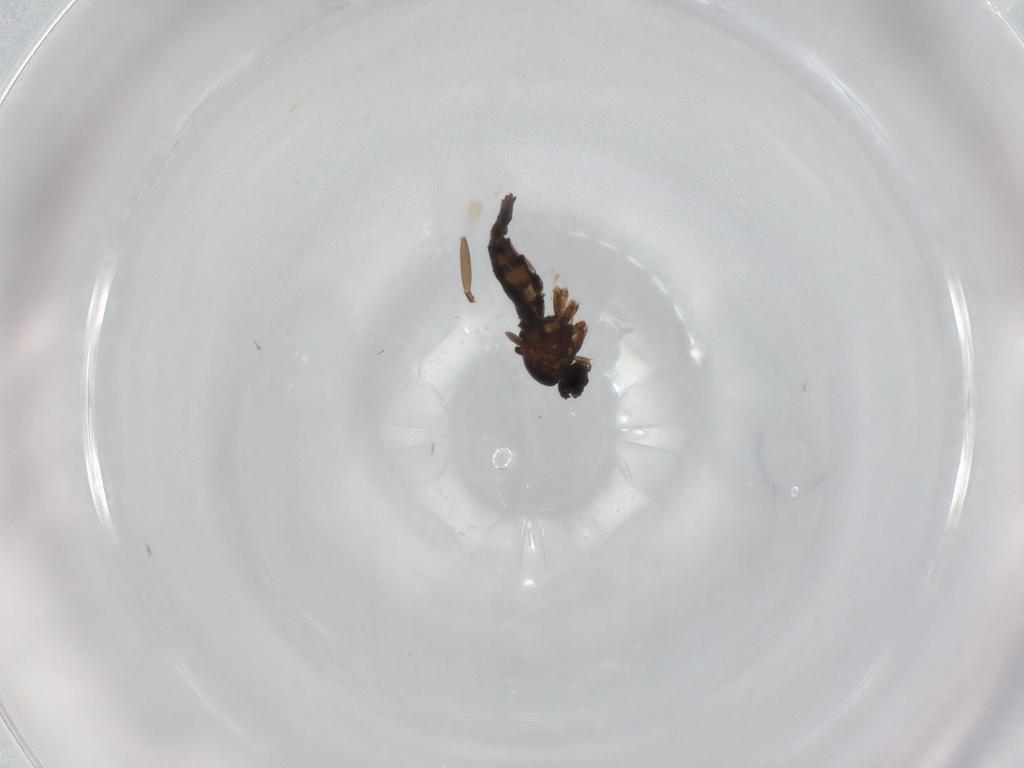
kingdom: Animalia
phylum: Arthropoda
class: Insecta
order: Diptera
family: Sciaridae
